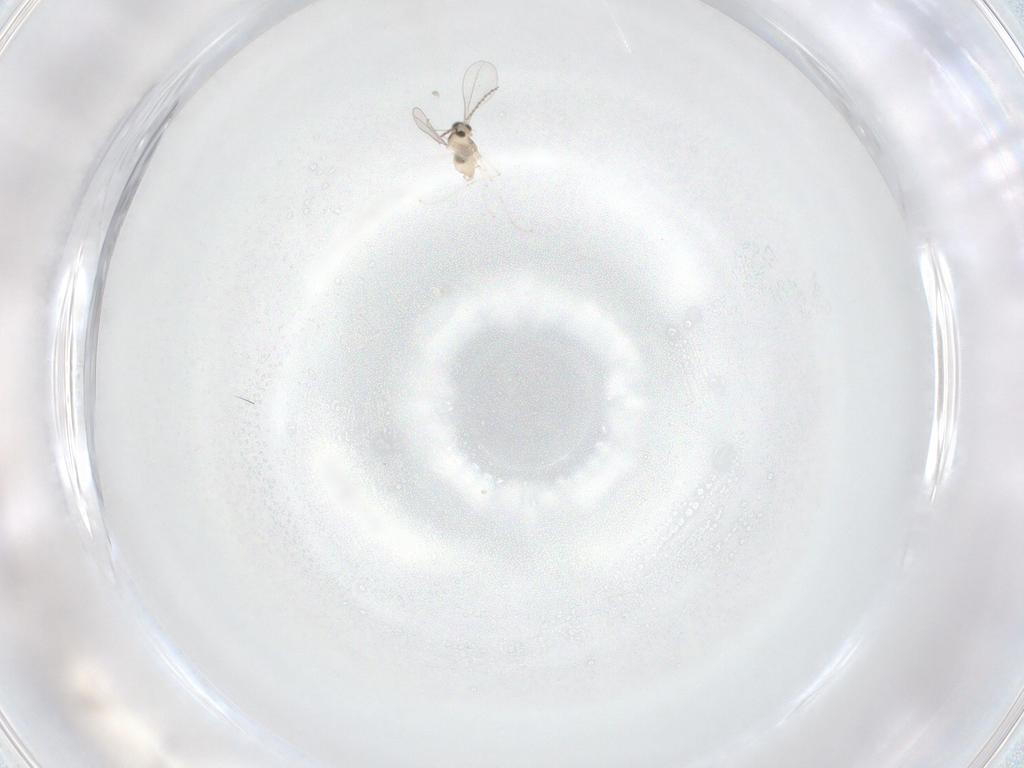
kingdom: Animalia
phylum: Arthropoda
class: Insecta
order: Diptera
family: Cecidomyiidae
